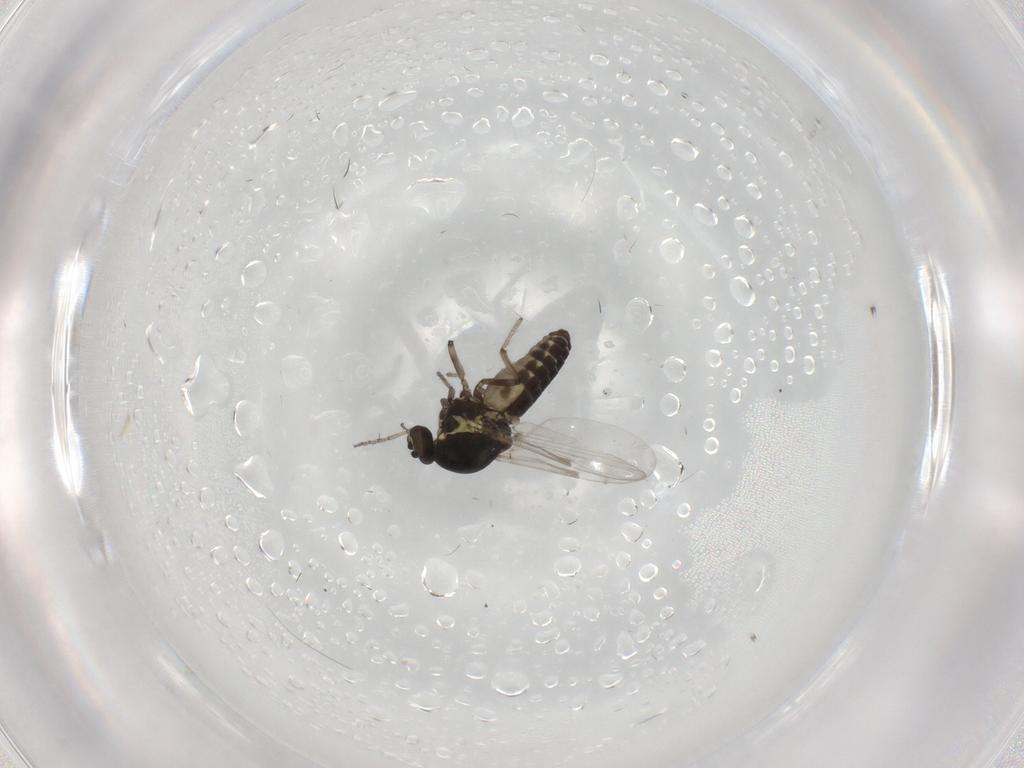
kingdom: Animalia
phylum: Arthropoda
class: Insecta
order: Diptera
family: Ceratopogonidae
